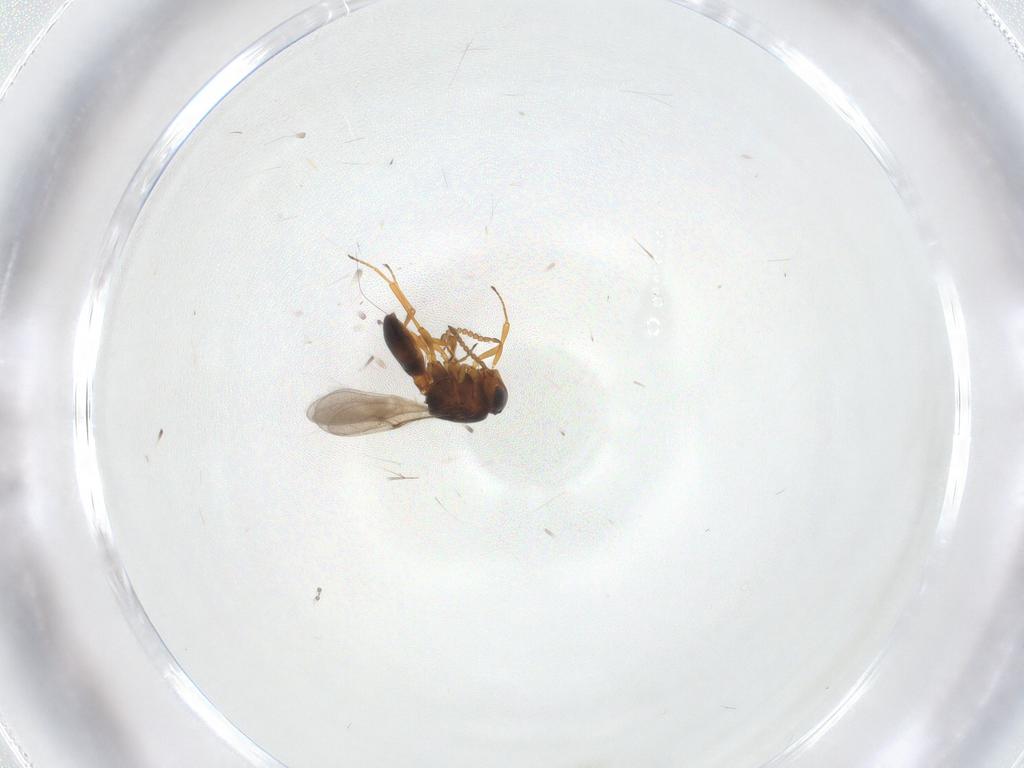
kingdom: Animalia
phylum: Arthropoda
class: Arachnida
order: Araneae
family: Pholcidae
